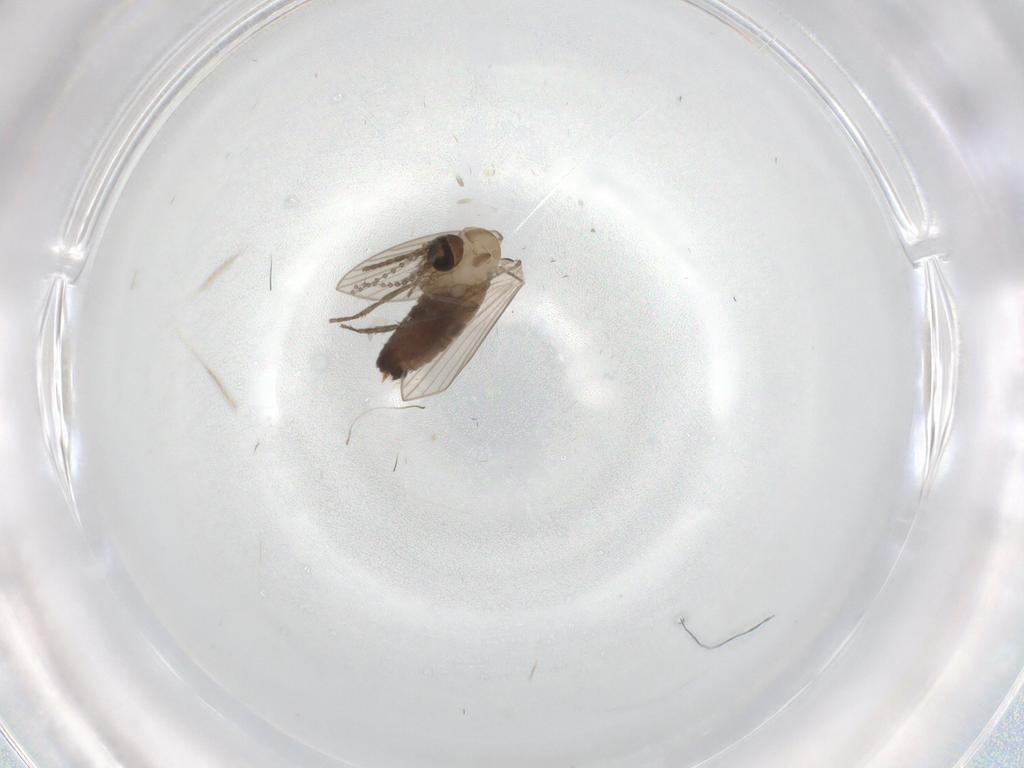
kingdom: Animalia
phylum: Arthropoda
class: Insecta
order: Diptera
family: Psychodidae
